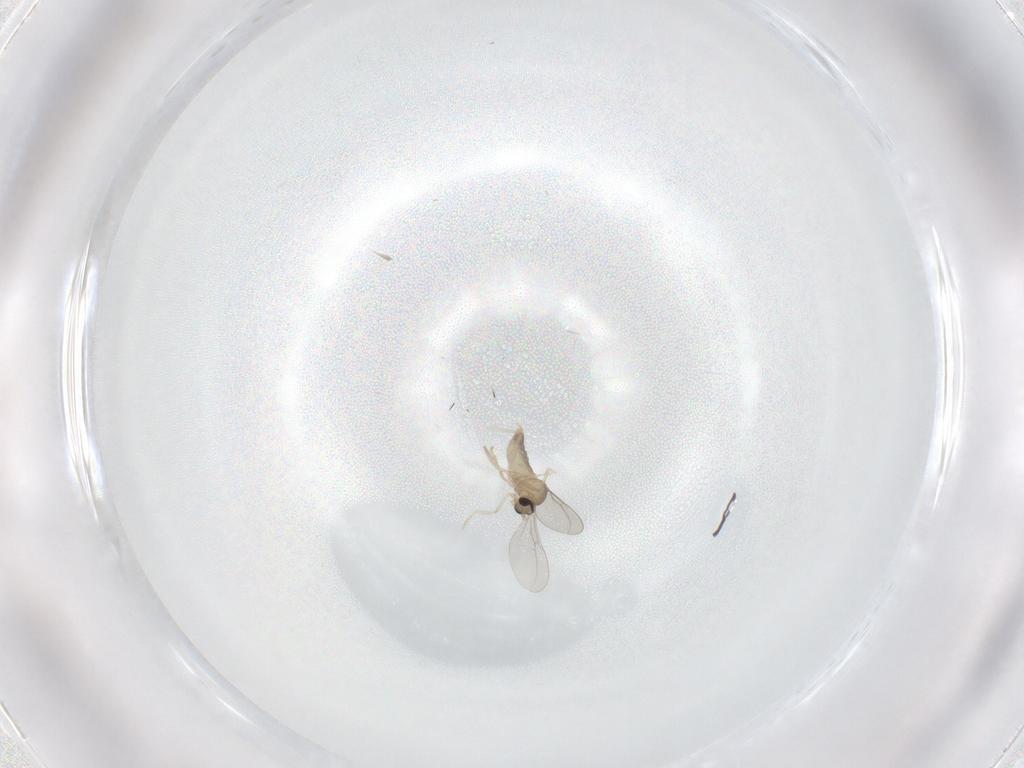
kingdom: Animalia
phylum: Arthropoda
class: Insecta
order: Diptera
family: Cecidomyiidae
